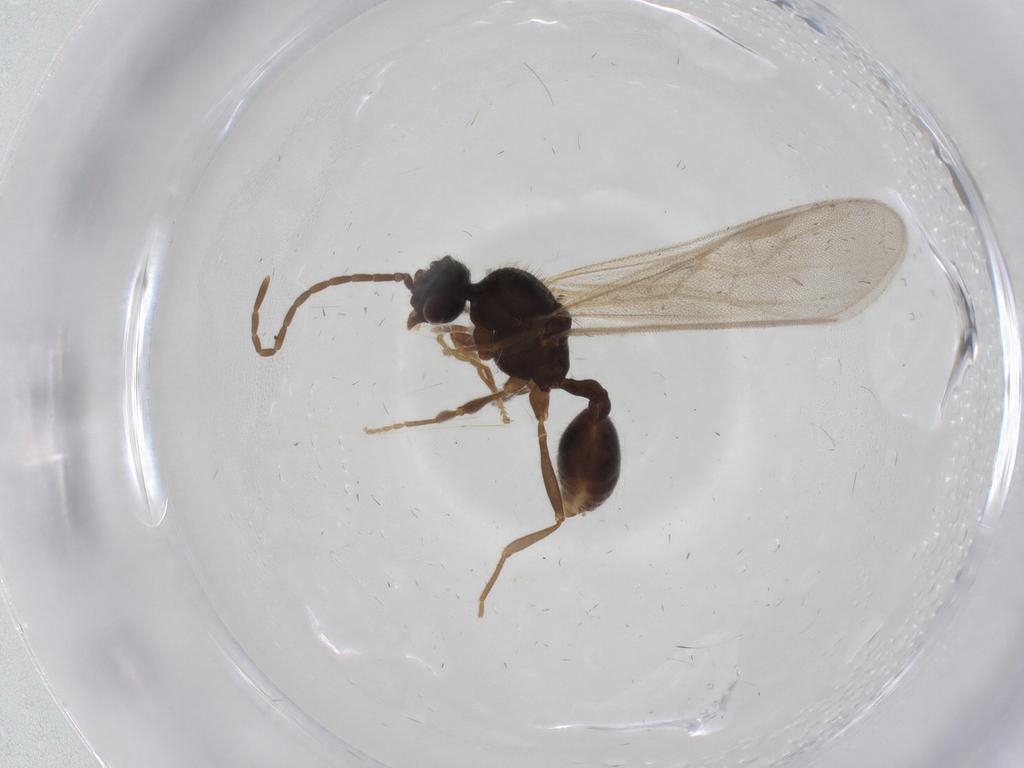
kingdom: Animalia
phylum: Arthropoda
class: Insecta
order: Hymenoptera
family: Formicidae
